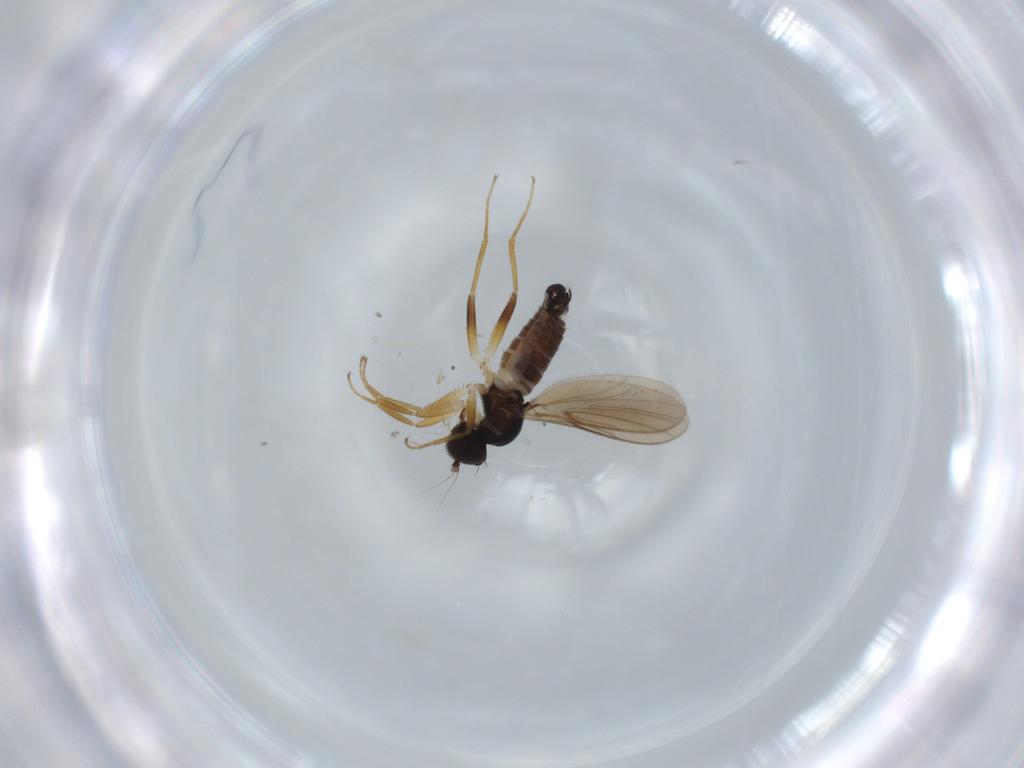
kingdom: Animalia
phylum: Arthropoda
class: Insecta
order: Diptera
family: Hybotidae
